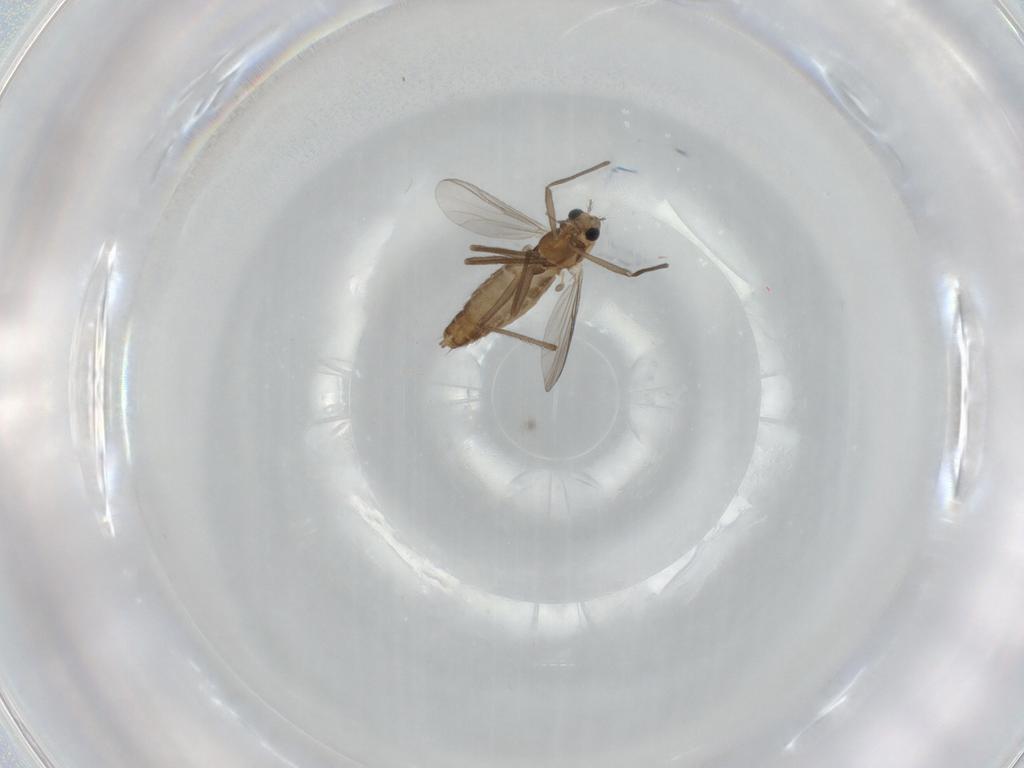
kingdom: Animalia
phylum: Arthropoda
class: Insecta
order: Diptera
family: Chironomidae
